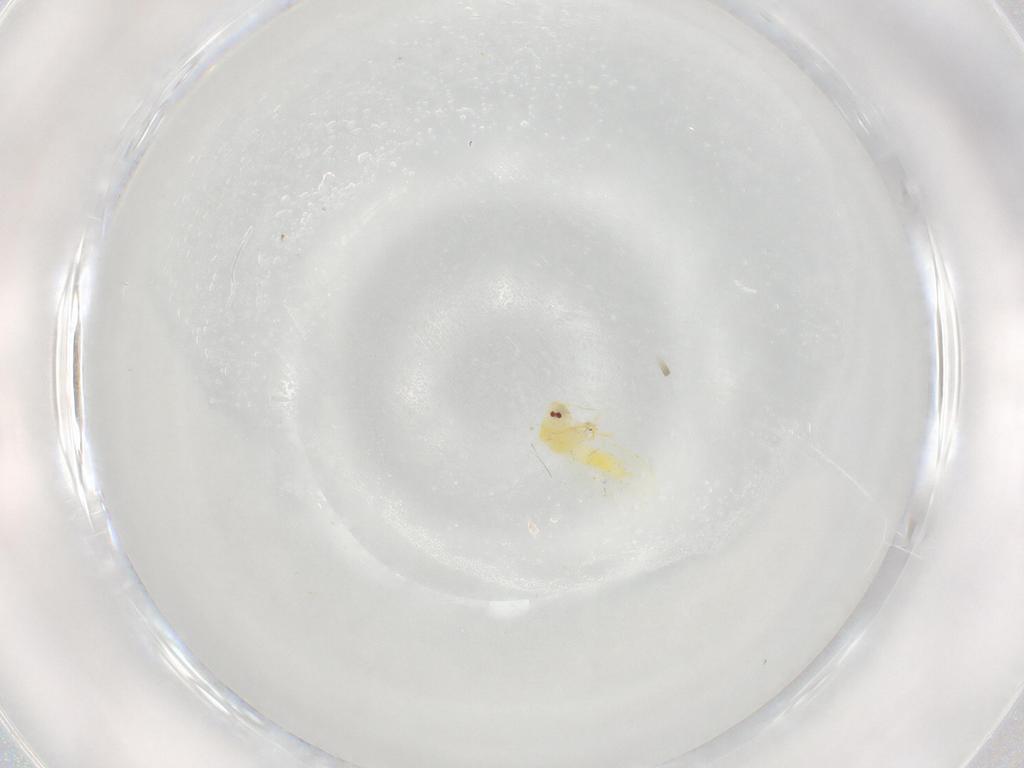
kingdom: Animalia
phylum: Arthropoda
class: Insecta
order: Hemiptera
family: Aleyrodidae
